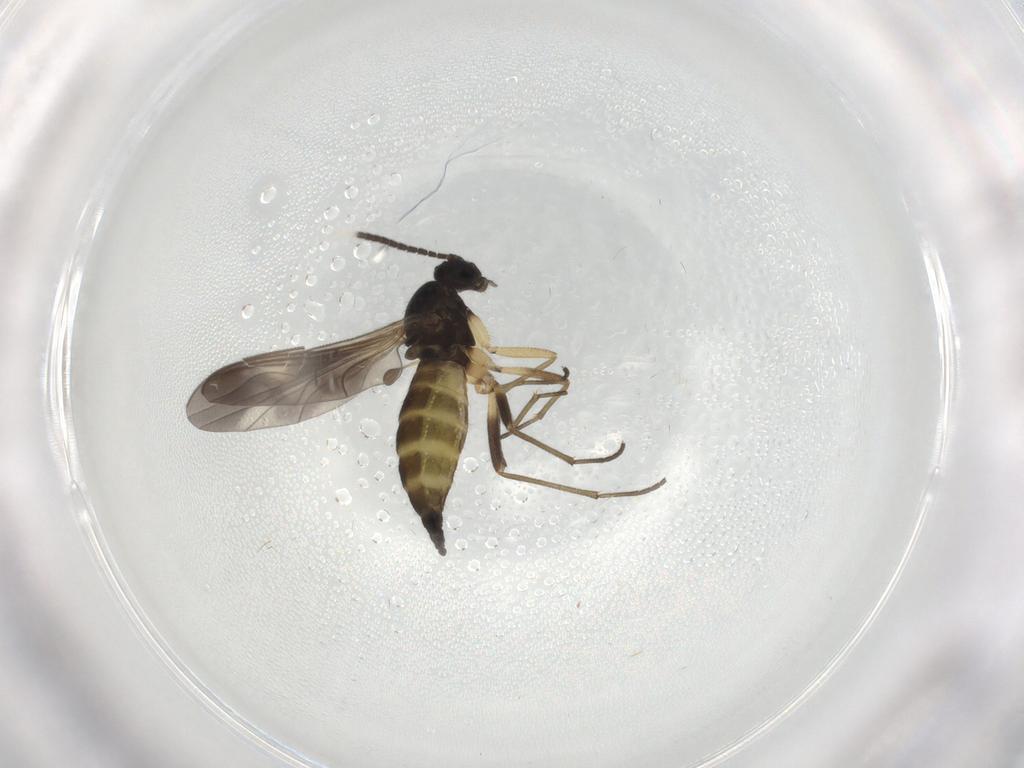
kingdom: Animalia
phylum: Arthropoda
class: Insecta
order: Diptera
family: Sciaridae
